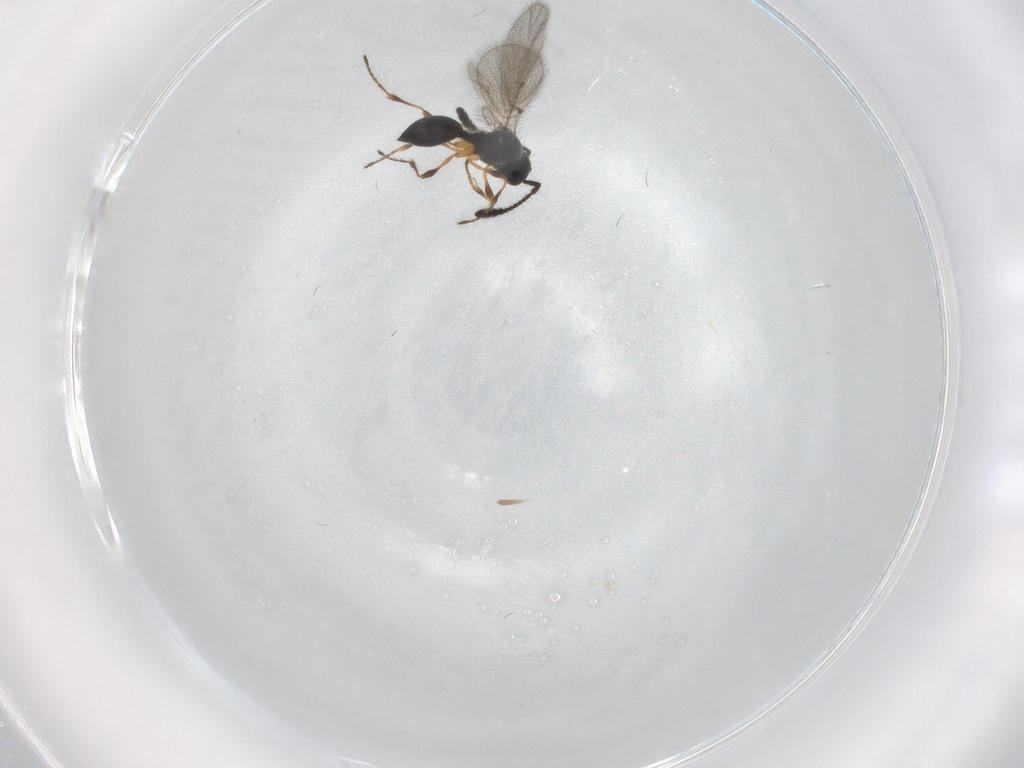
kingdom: Animalia
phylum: Arthropoda
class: Insecta
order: Hymenoptera
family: Diapriidae
